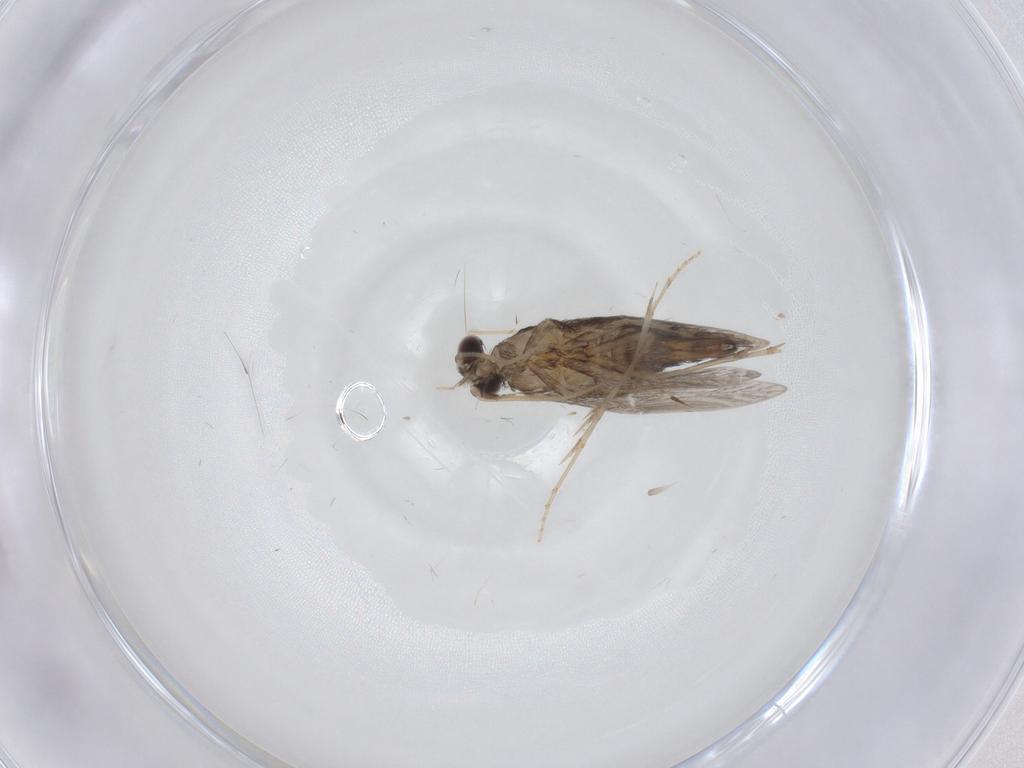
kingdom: Animalia
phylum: Arthropoda
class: Insecta
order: Trichoptera
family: Hydroptilidae
